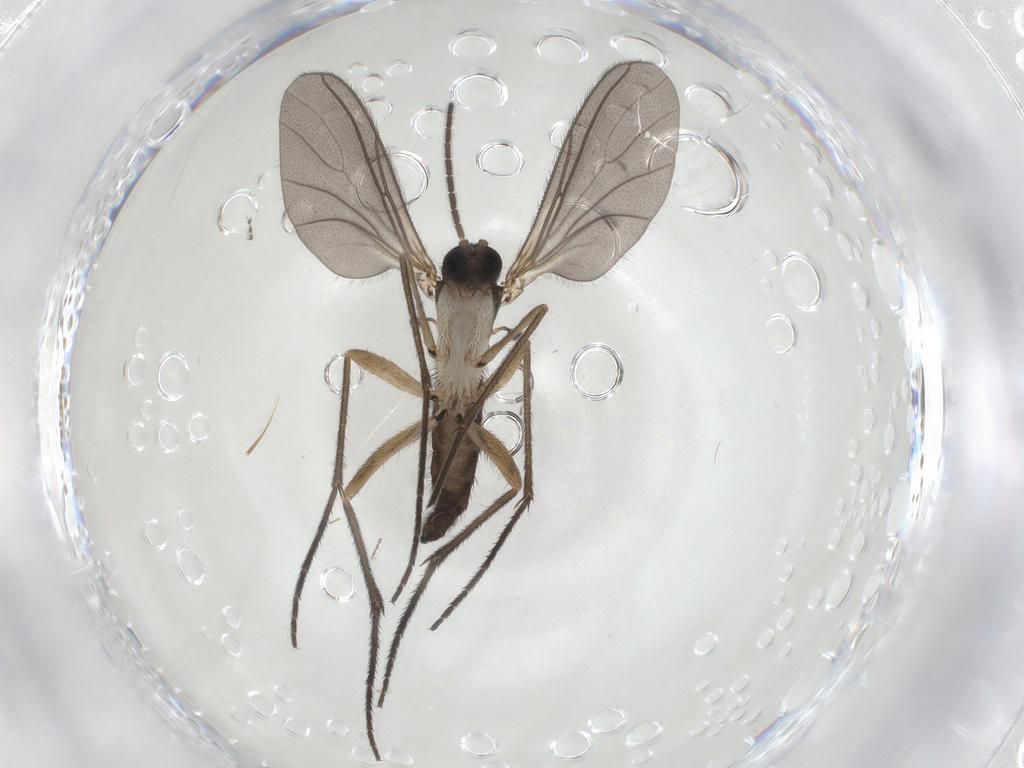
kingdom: Animalia
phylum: Arthropoda
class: Insecta
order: Diptera
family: Sciaridae
